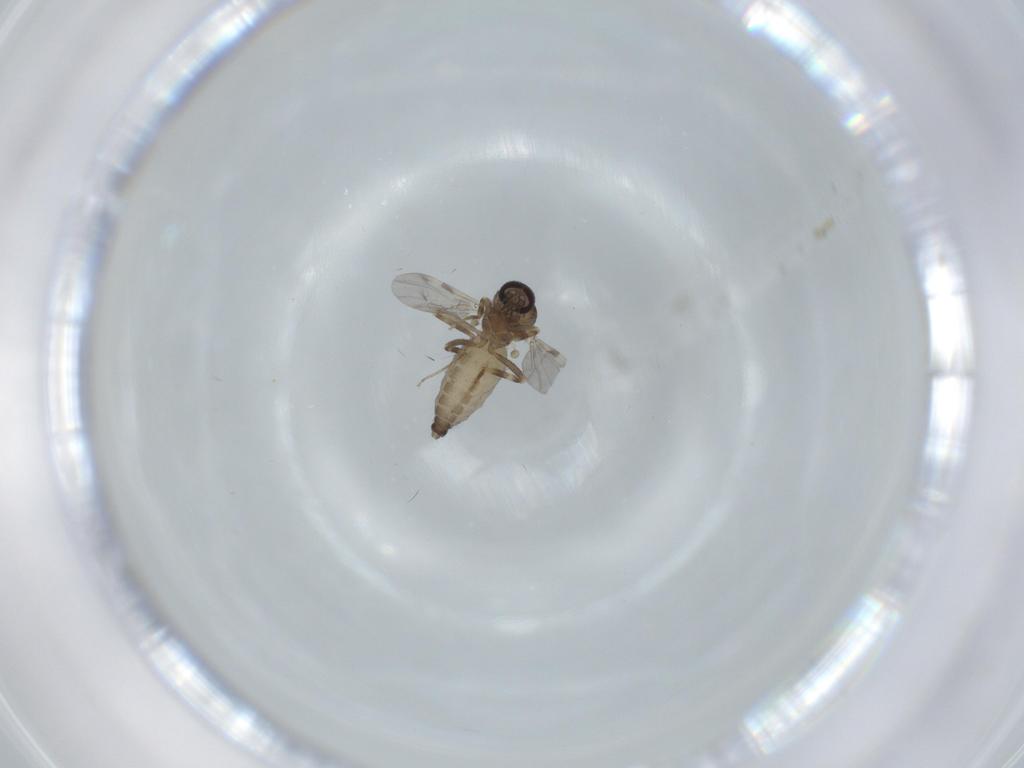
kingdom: Animalia
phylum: Arthropoda
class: Insecta
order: Diptera
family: Ceratopogonidae
